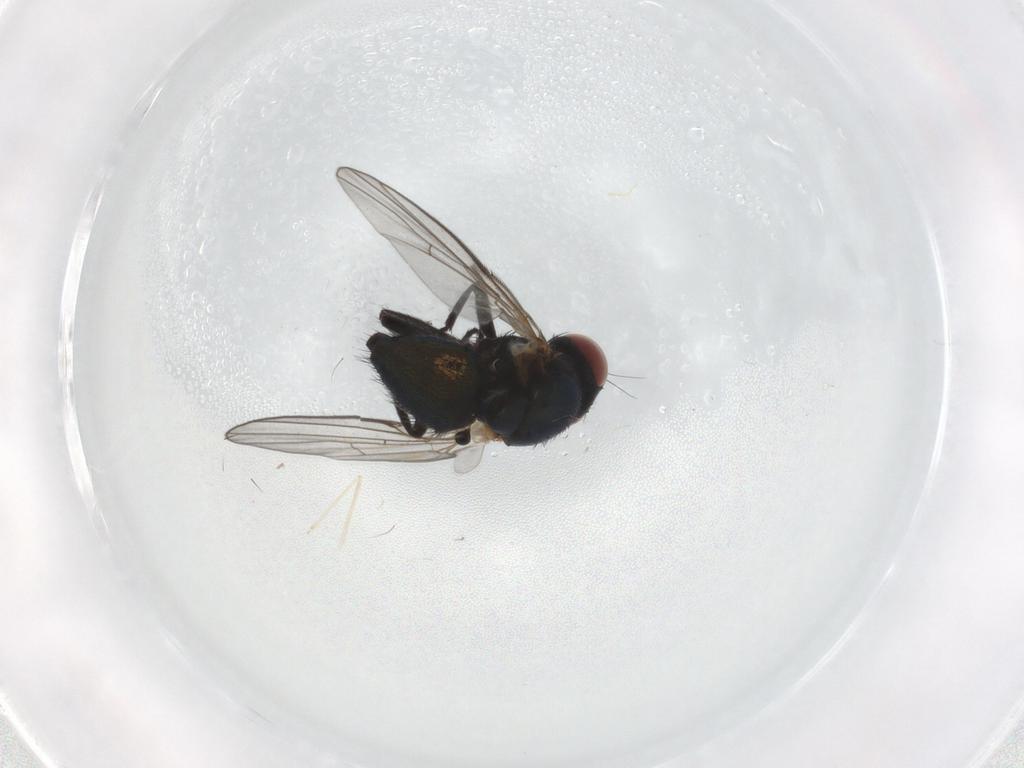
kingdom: Animalia
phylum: Arthropoda
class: Insecta
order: Diptera
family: Agromyzidae
